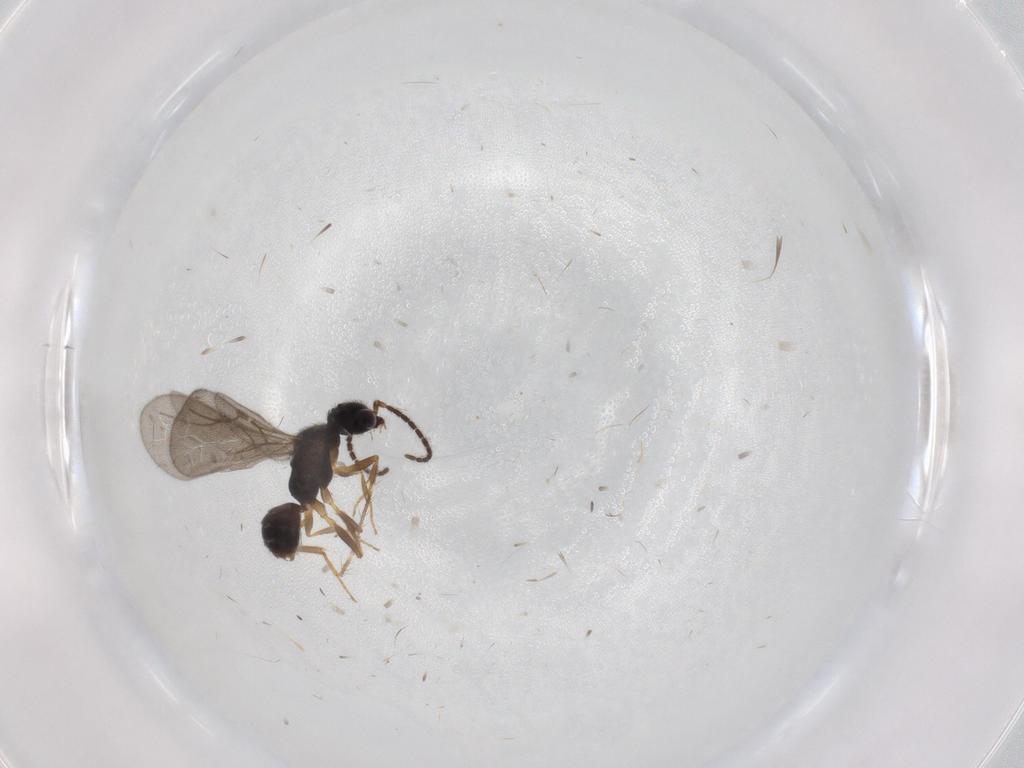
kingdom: Animalia
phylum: Arthropoda
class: Insecta
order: Hymenoptera
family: Bethylidae
